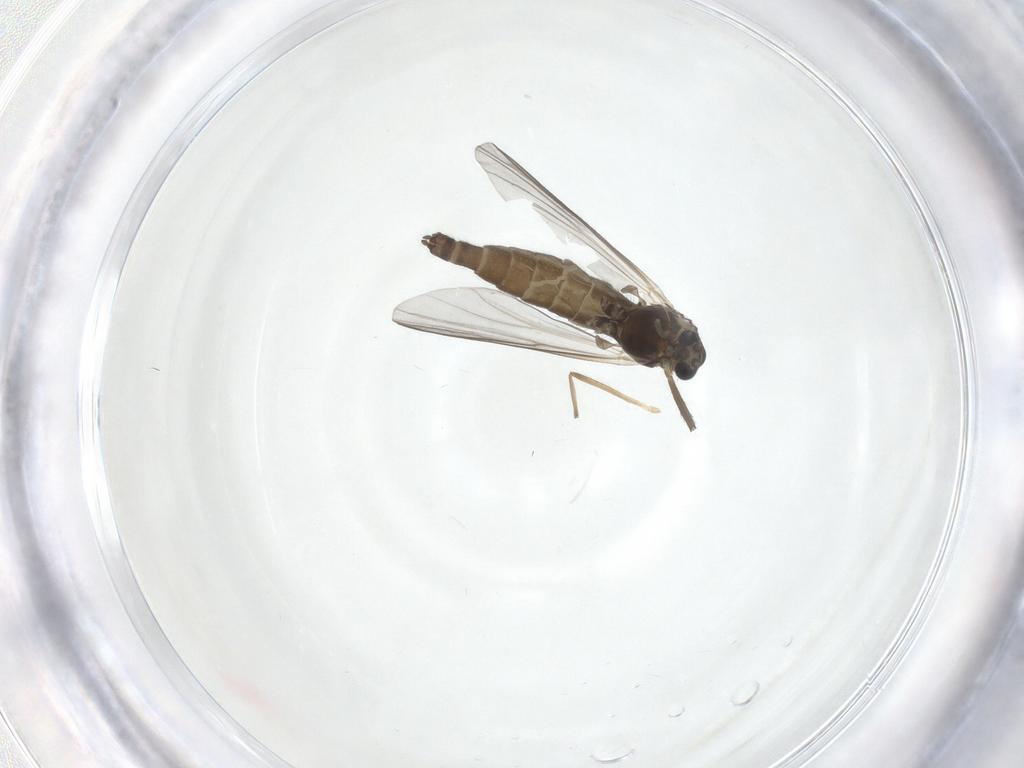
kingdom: Animalia
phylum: Arthropoda
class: Insecta
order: Diptera
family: Chironomidae
